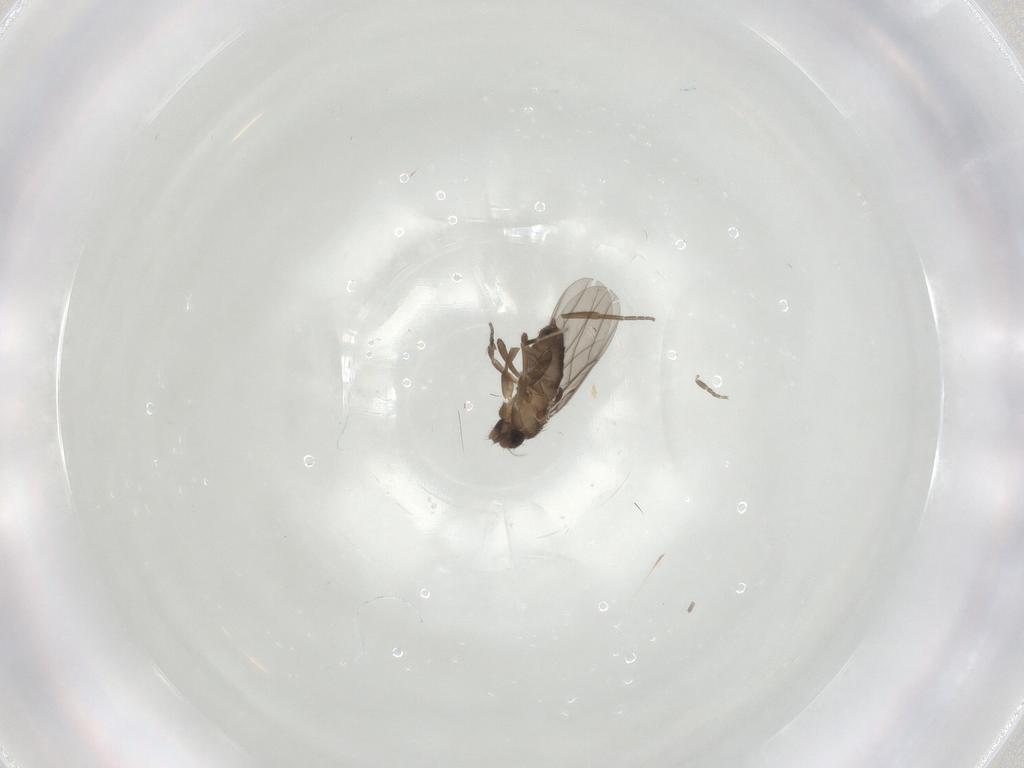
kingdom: Animalia
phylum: Arthropoda
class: Insecta
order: Diptera
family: Phoridae
